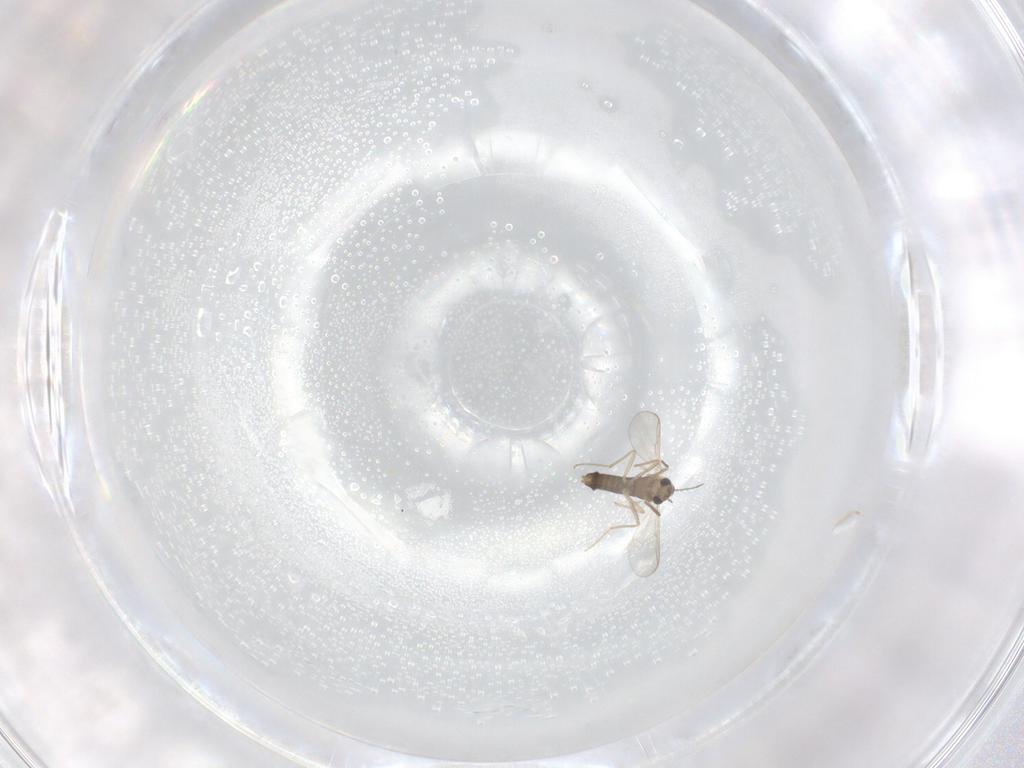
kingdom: Animalia
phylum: Arthropoda
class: Insecta
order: Diptera
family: Chironomidae
